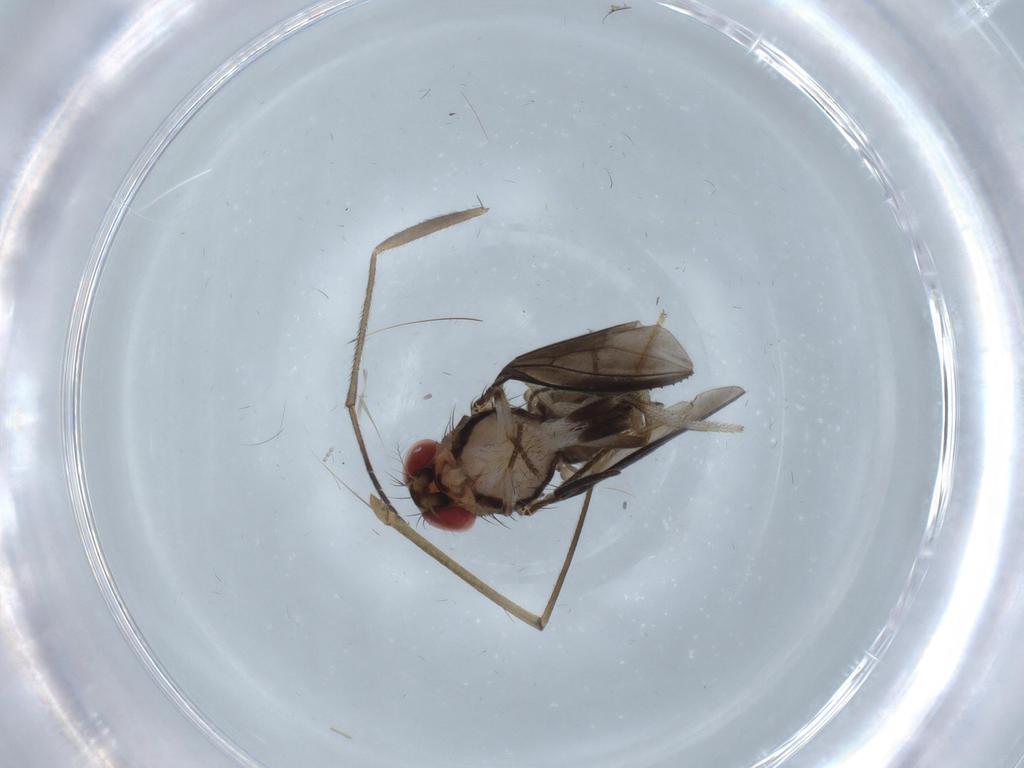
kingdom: Animalia
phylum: Arthropoda
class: Insecta
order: Diptera
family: Drosophilidae
